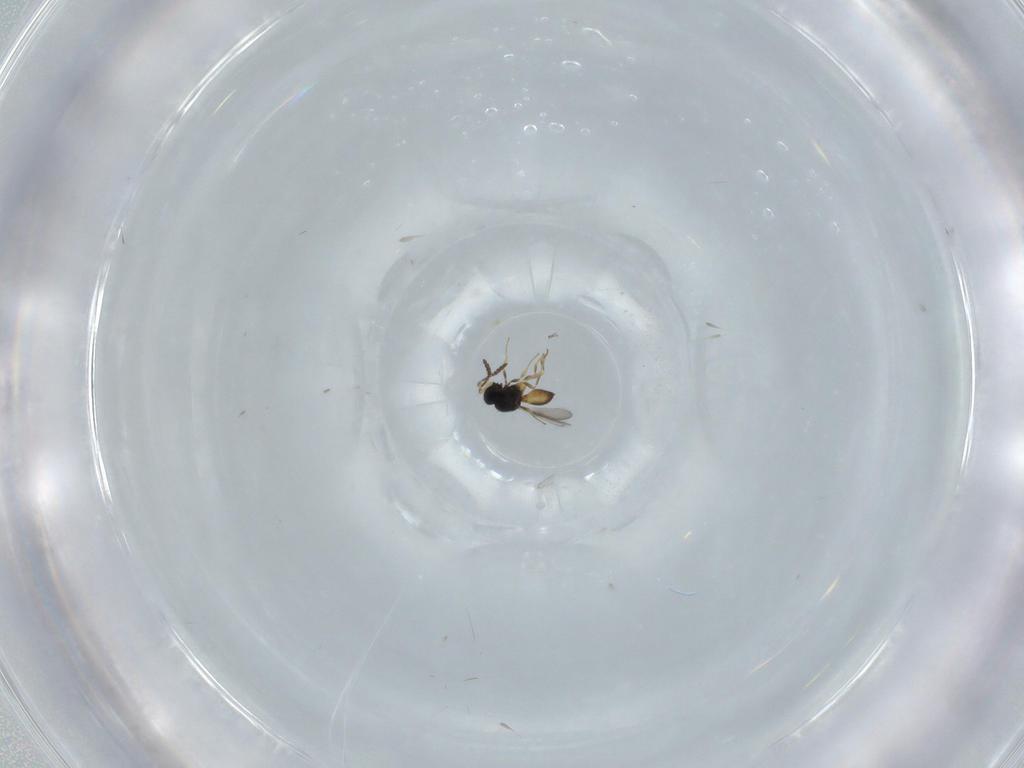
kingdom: Animalia
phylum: Arthropoda
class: Insecta
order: Hymenoptera
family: Scelionidae
